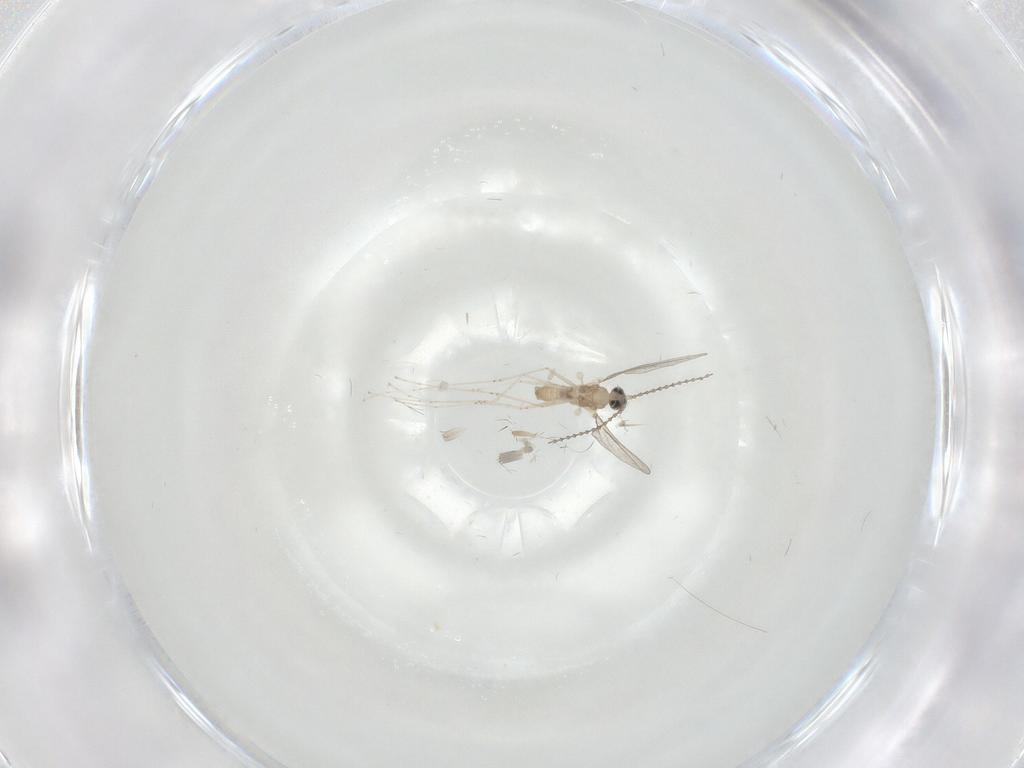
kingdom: Animalia
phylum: Arthropoda
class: Insecta
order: Diptera
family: Cecidomyiidae
